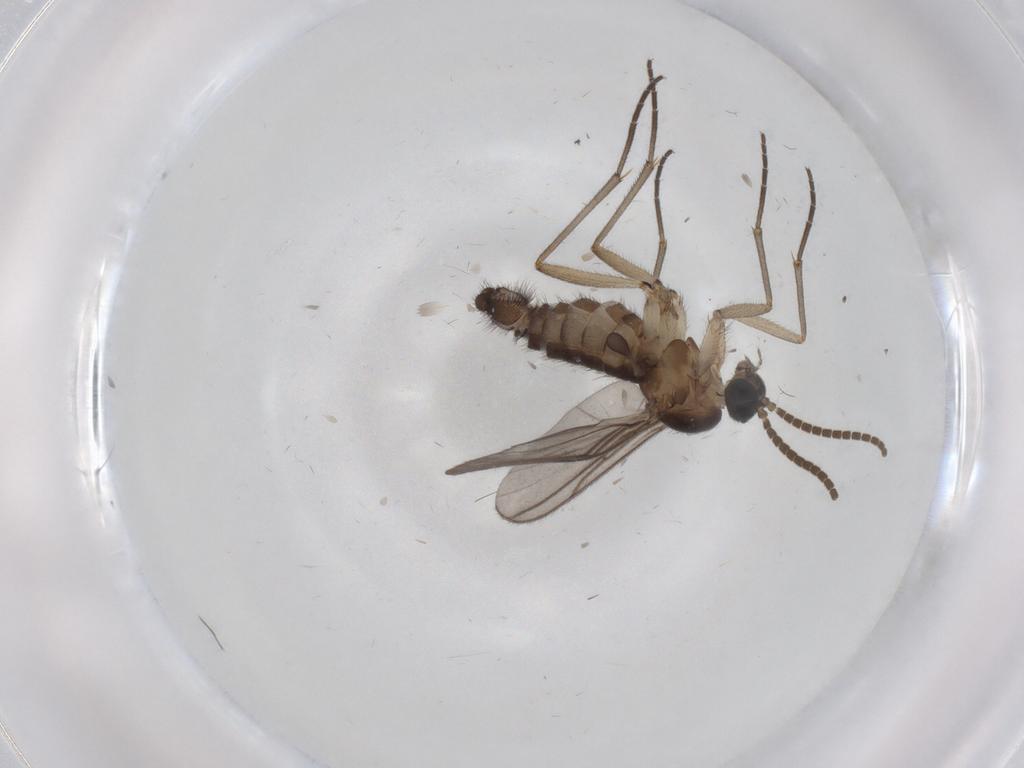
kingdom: Animalia
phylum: Arthropoda
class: Insecta
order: Diptera
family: Sciaridae
